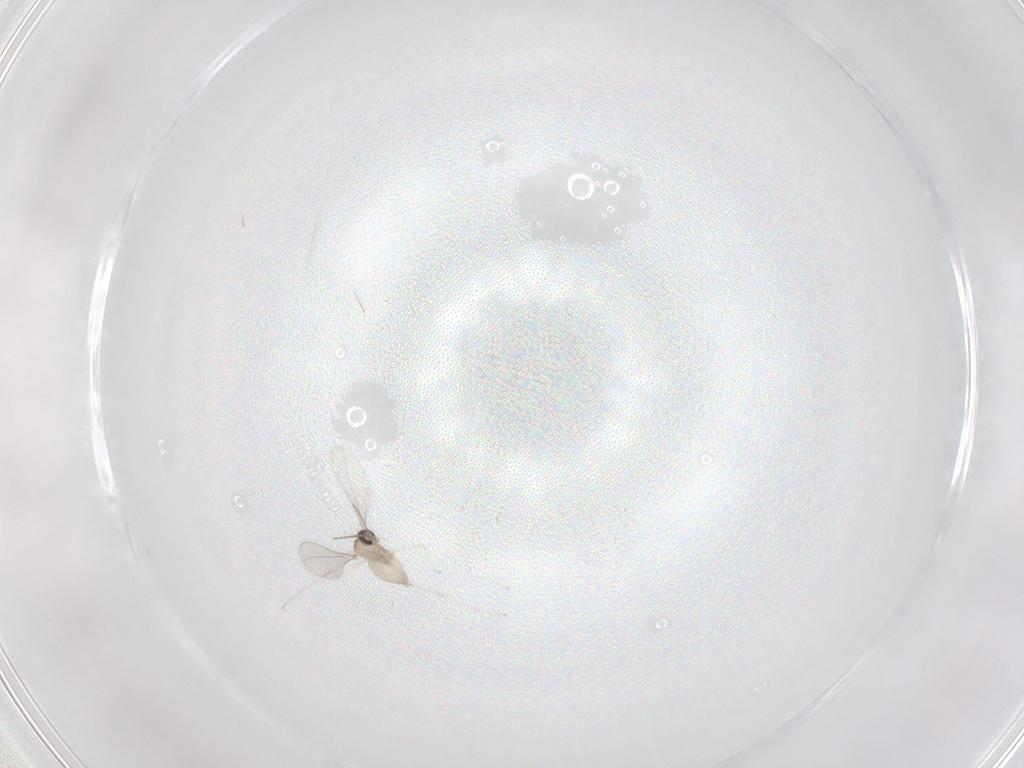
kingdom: Animalia
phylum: Arthropoda
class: Insecta
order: Diptera
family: Cecidomyiidae
